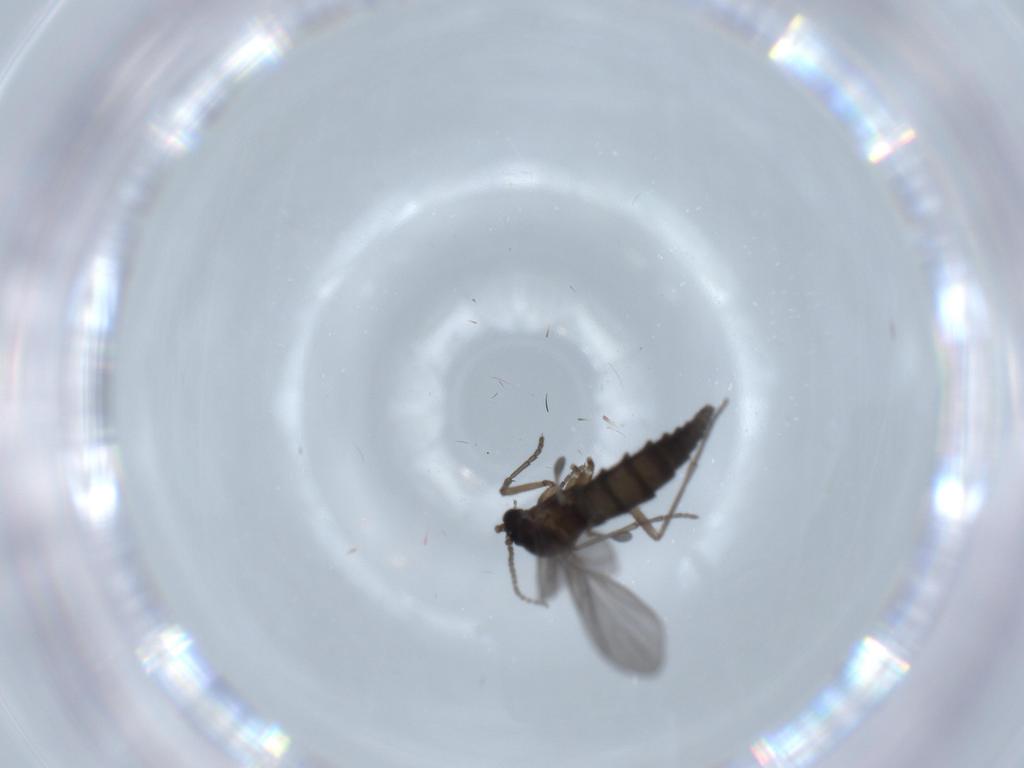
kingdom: Animalia
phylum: Arthropoda
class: Insecta
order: Diptera
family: Sciaridae
